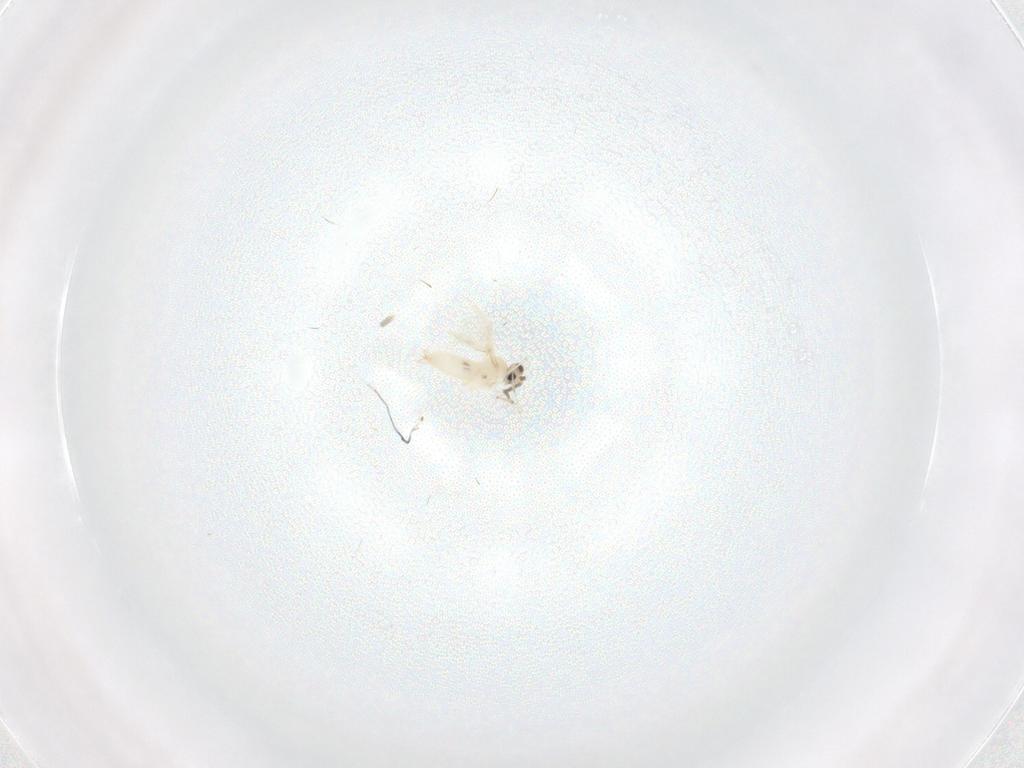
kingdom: Animalia
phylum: Arthropoda
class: Insecta
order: Diptera
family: Cecidomyiidae
